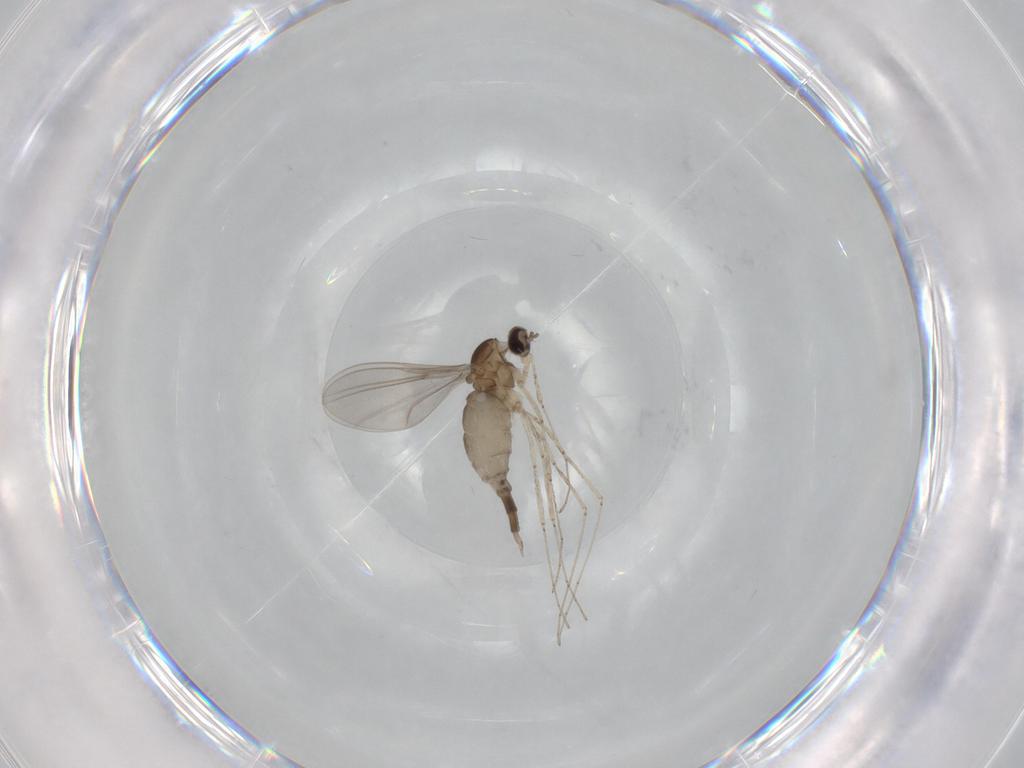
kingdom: Animalia
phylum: Arthropoda
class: Insecta
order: Diptera
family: Cecidomyiidae
